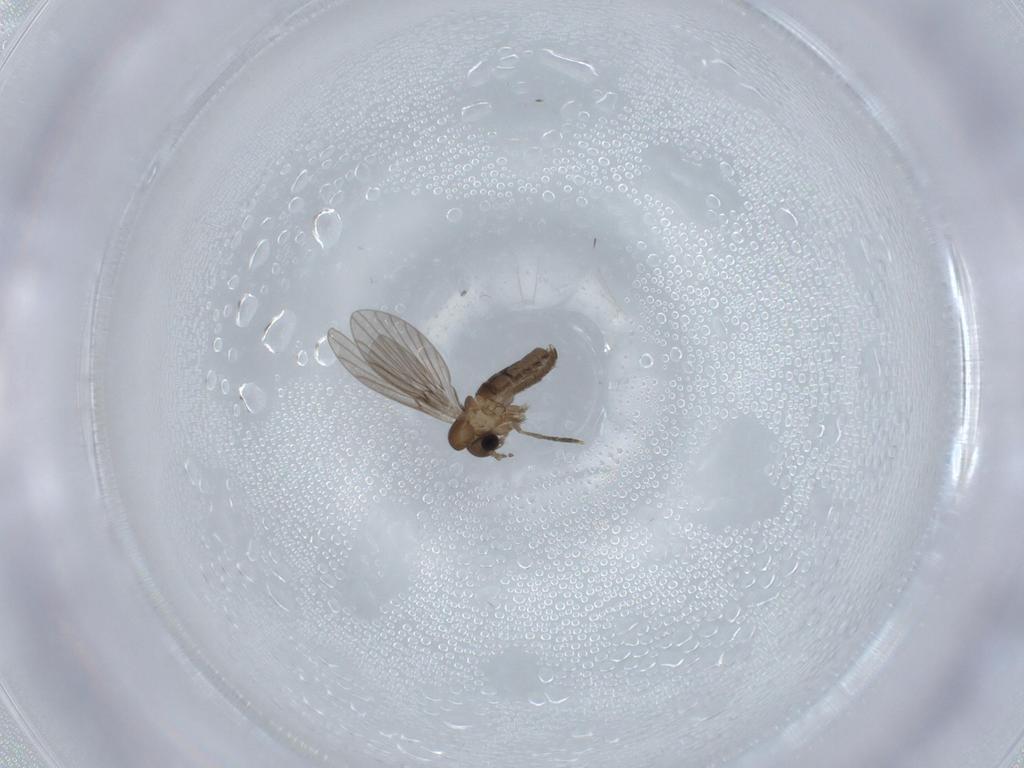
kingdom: Animalia
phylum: Arthropoda
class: Insecta
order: Diptera
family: Psychodidae
